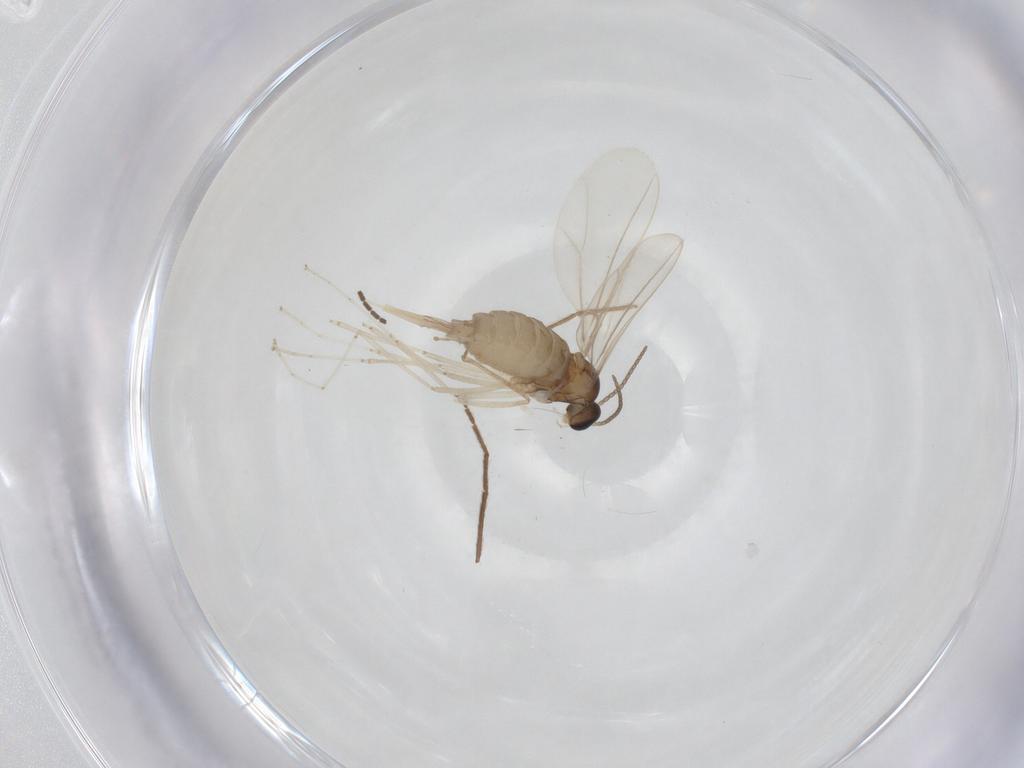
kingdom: Animalia
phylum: Arthropoda
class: Insecta
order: Diptera
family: Cecidomyiidae
